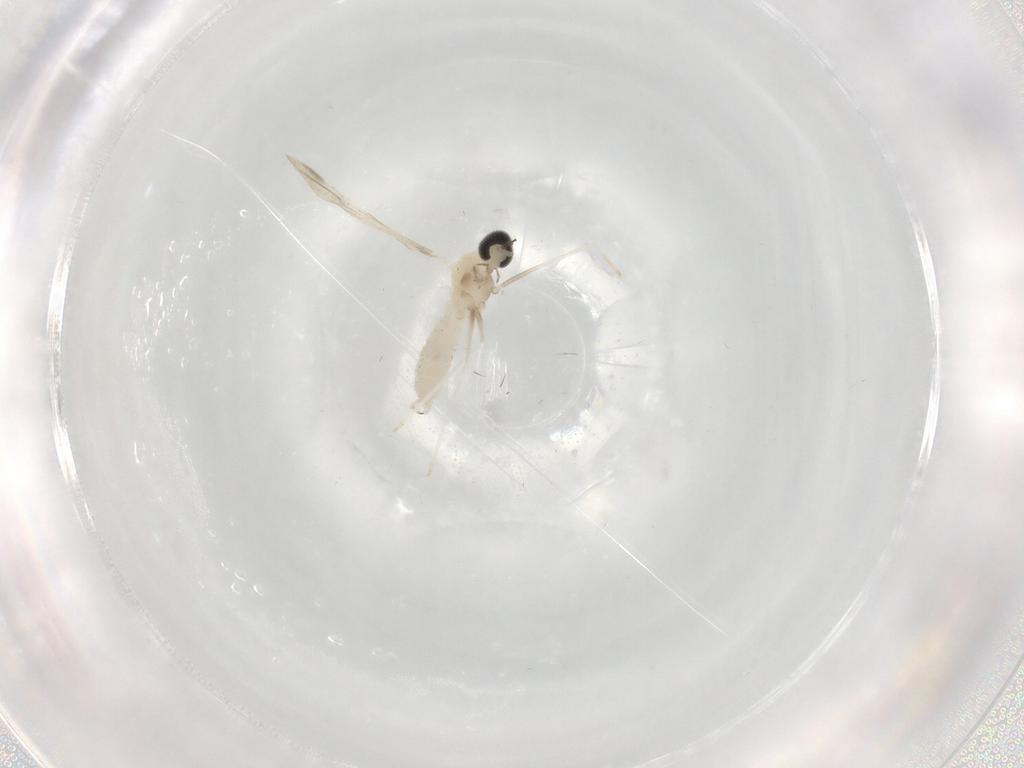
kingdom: Animalia
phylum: Arthropoda
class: Insecta
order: Diptera
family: Cecidomyiidae
